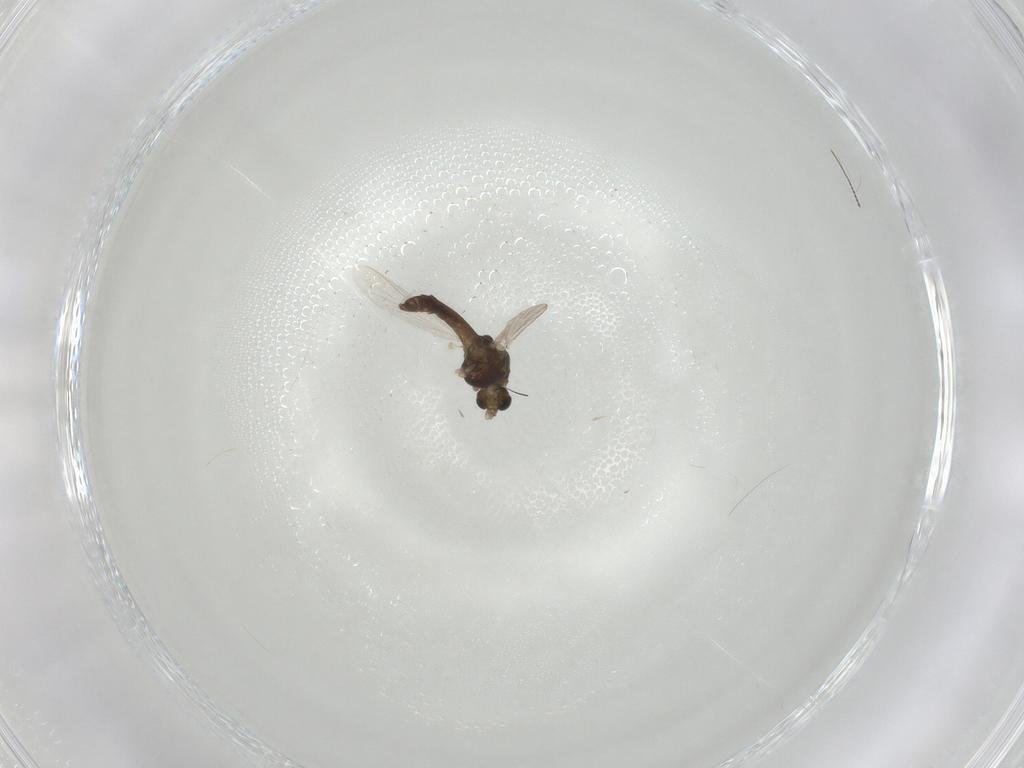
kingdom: Animalia
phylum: Arthropoda
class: Insecta
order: Diptera
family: Chironomidae
